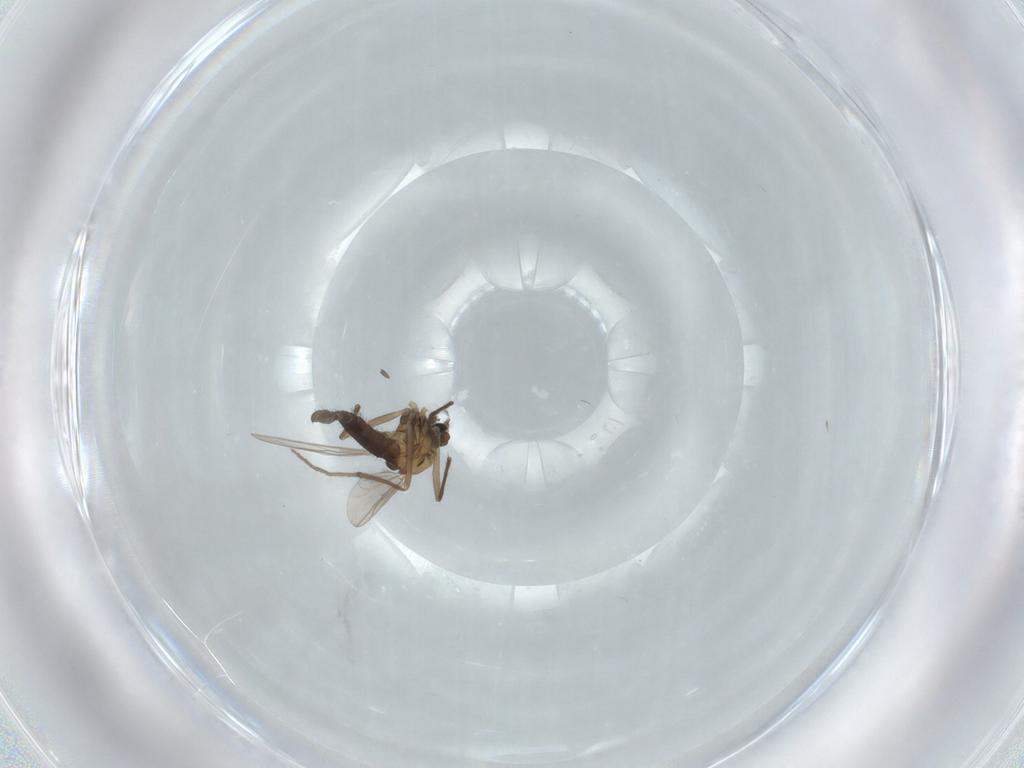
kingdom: Animalia
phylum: Arthropoda
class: Insecta
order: Diptera
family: Chironomidae
